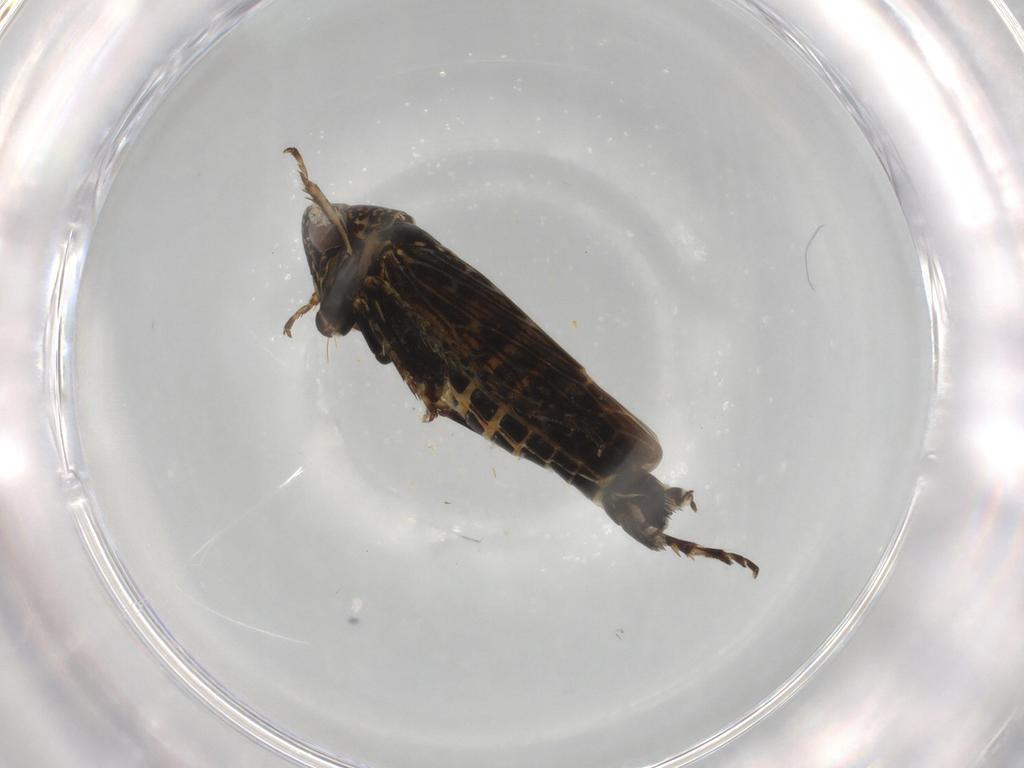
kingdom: Animalia
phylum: Arthropoda
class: Insecta
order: Hemiptera
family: Cicadellidae
